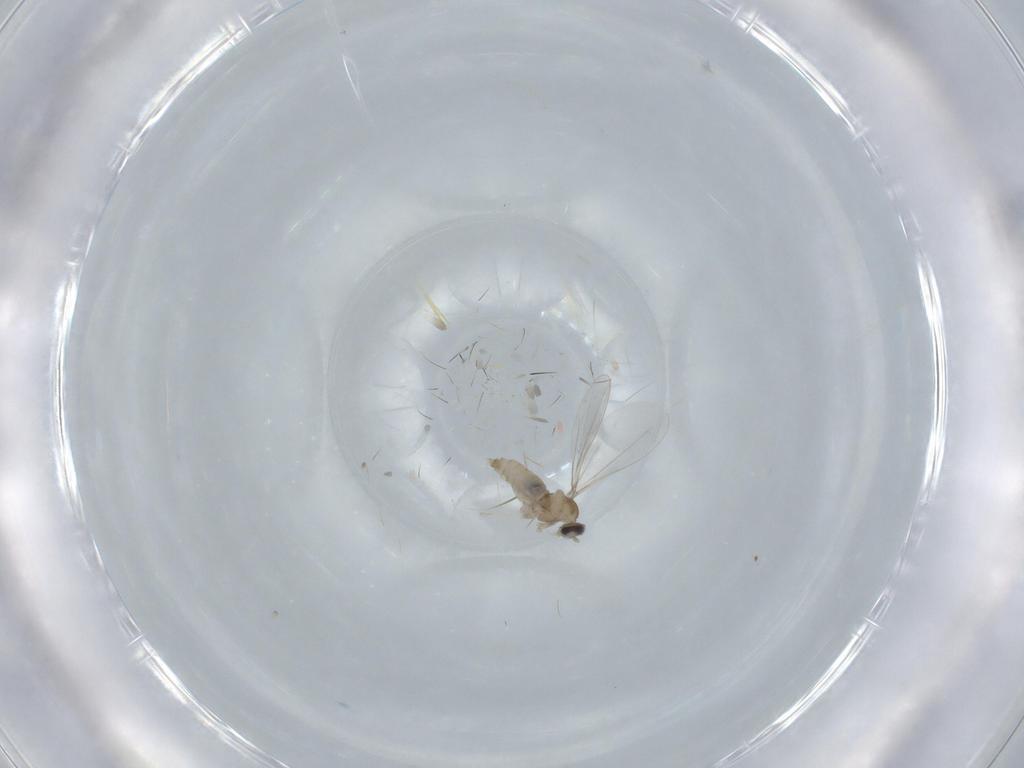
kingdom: Animalia
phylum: Arthropoda
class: Insecta
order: Diptera
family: Cecidomyiidae
